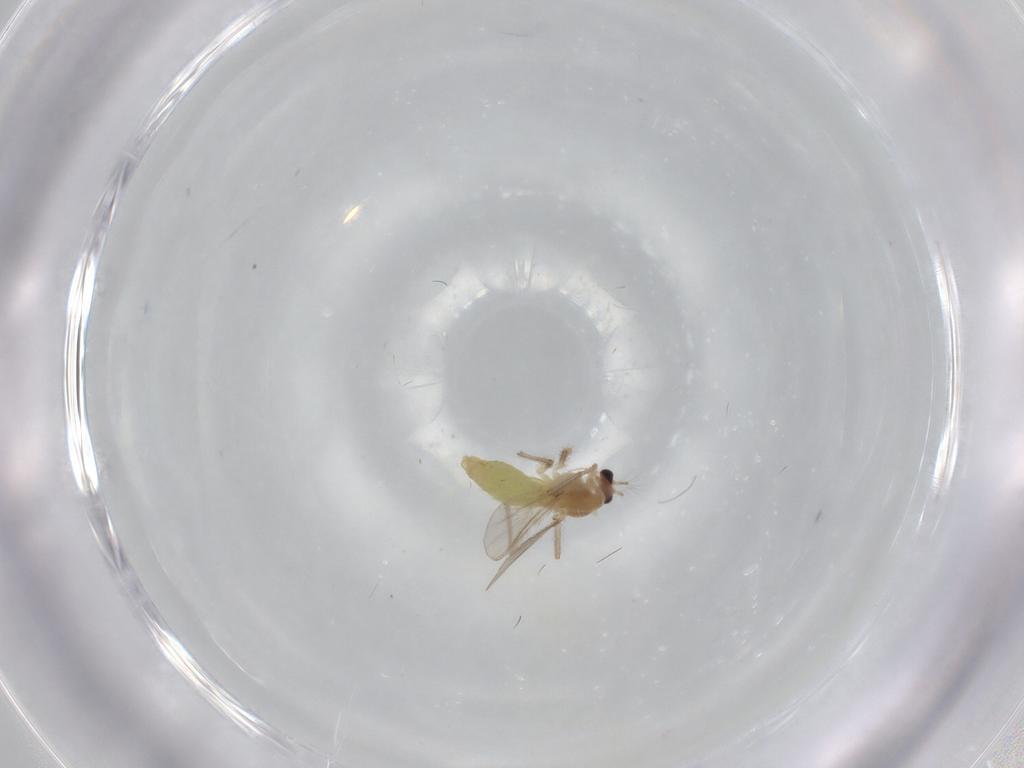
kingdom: Animalia
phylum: Arthropoda
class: Insecta
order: Diptera
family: Chironomidae
